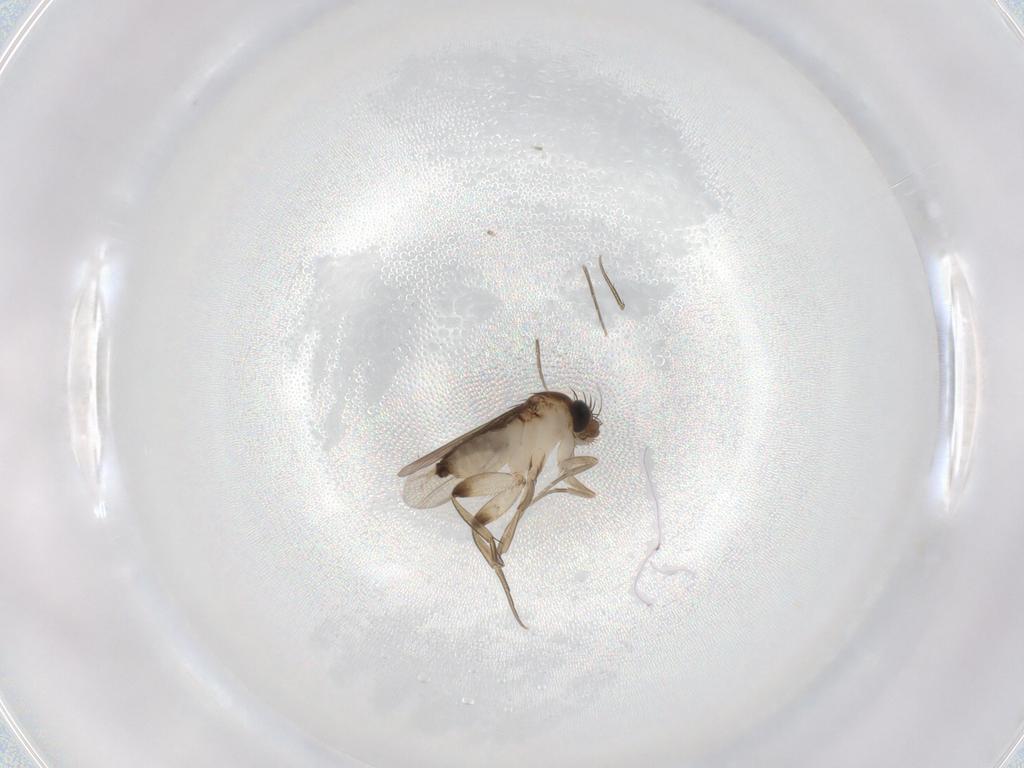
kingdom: Animalia
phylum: Arthropoda
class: Insecta
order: Diptera
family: Phoridae
